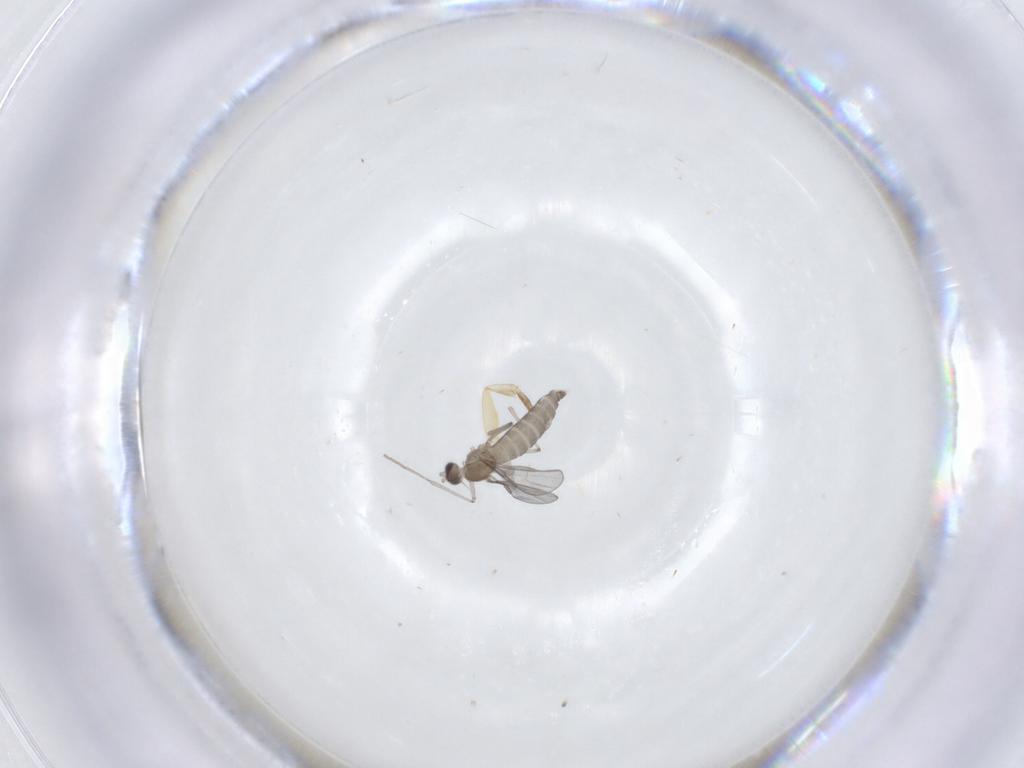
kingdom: Animalia
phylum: Arthropoda
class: Insecta
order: Diptera
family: Cecidomyiidae
